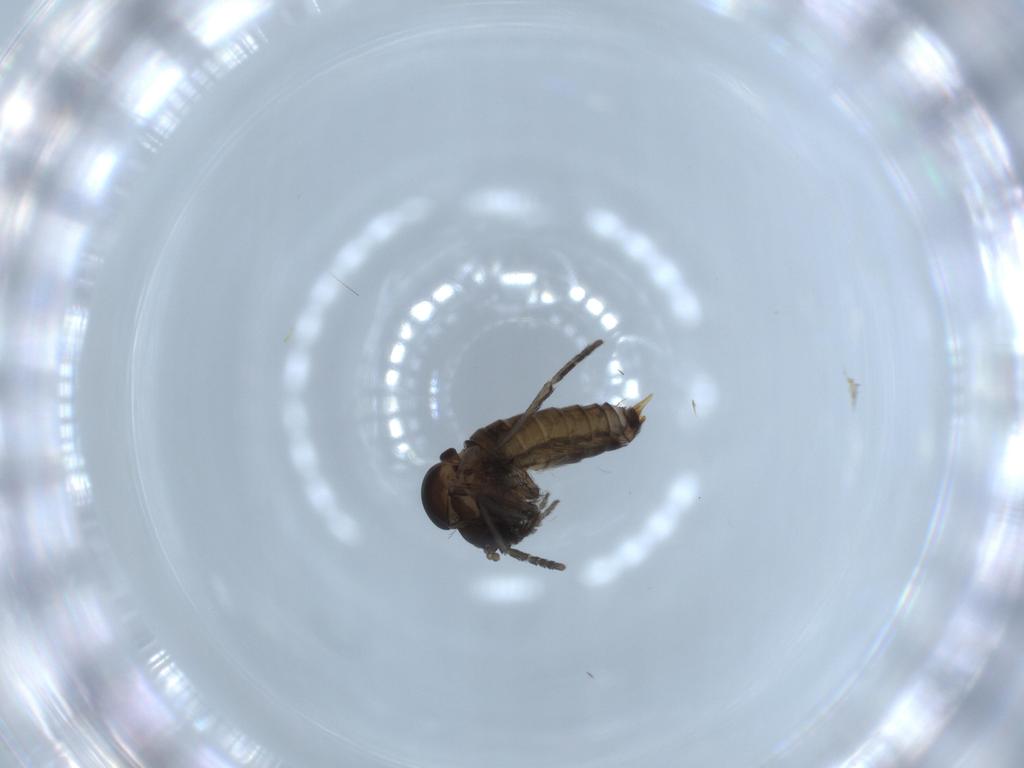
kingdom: Animalia
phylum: Arthropoda
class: Insecta
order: Diptera
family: Psychodidae
